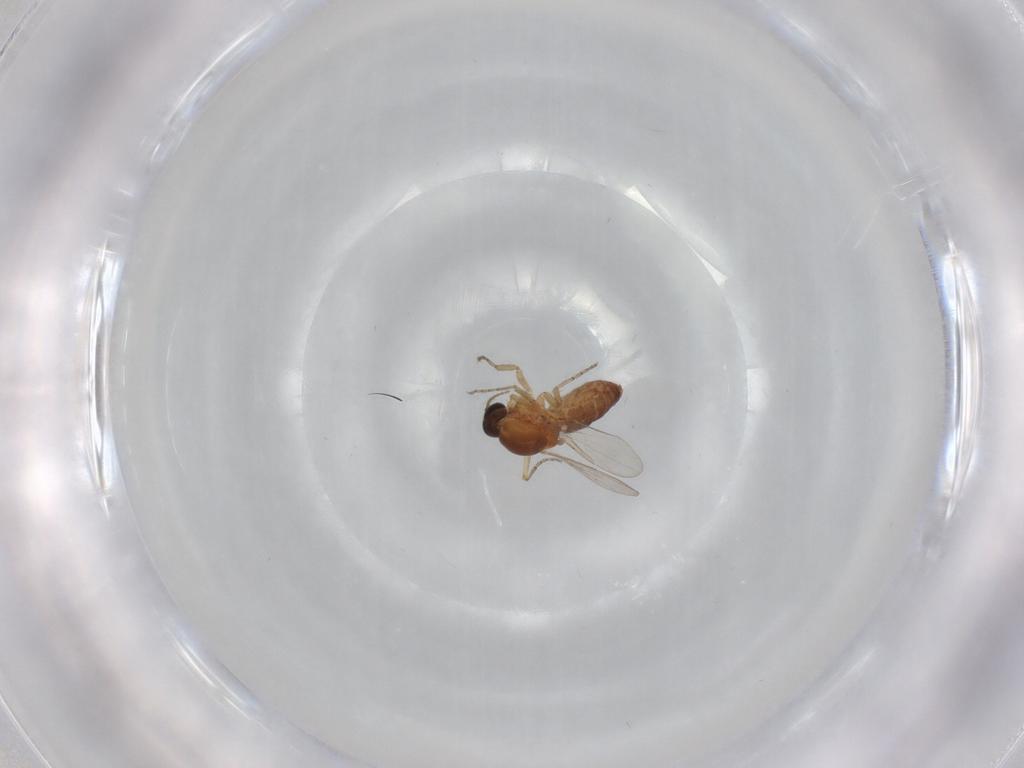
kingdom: Animalia
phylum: Arthropoda
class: Insecta
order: Diptera
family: Ceratopogonidae
